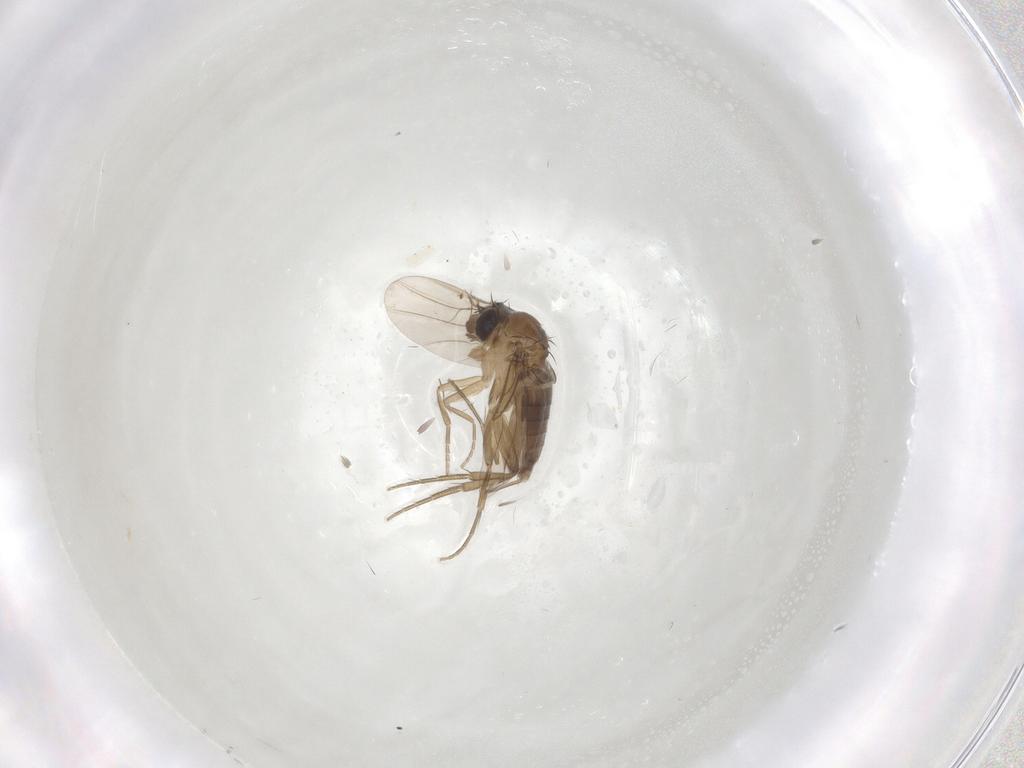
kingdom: Animalia
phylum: Arthropoda
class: Insecta
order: Diptera
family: Phoridae
